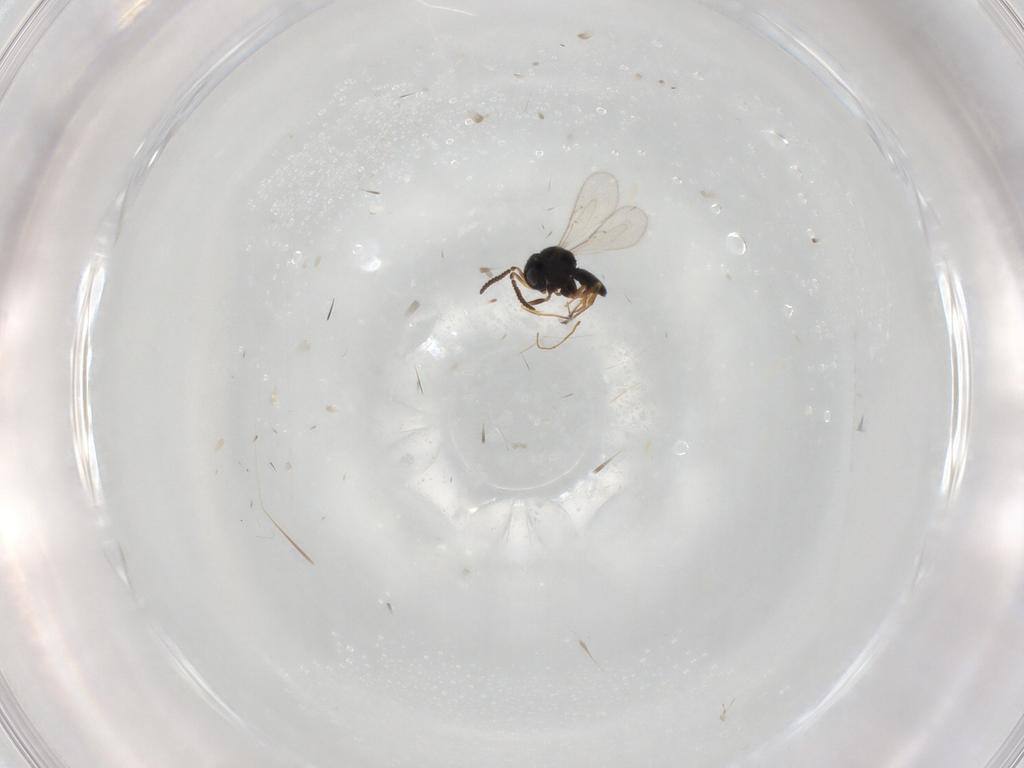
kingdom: Animalia
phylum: Arthropoda
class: Insecta
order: Hymenoptera
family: Scelionidae
